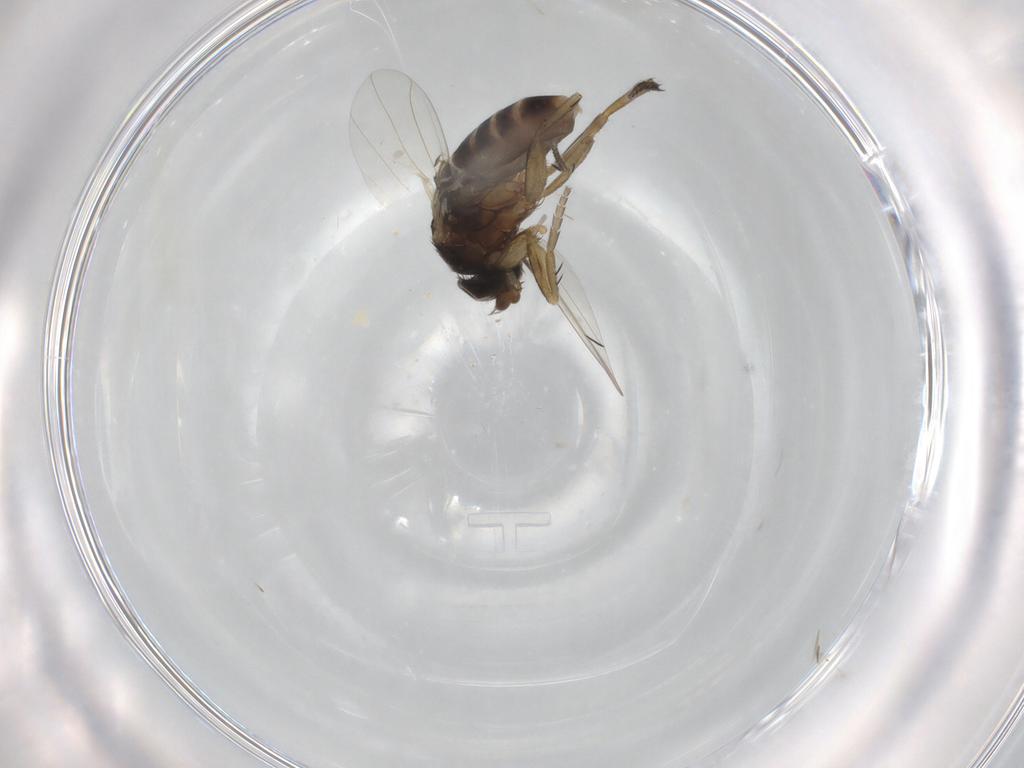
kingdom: Animalia
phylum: Arthropoda
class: Insecta
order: Diptera
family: Phoridae
